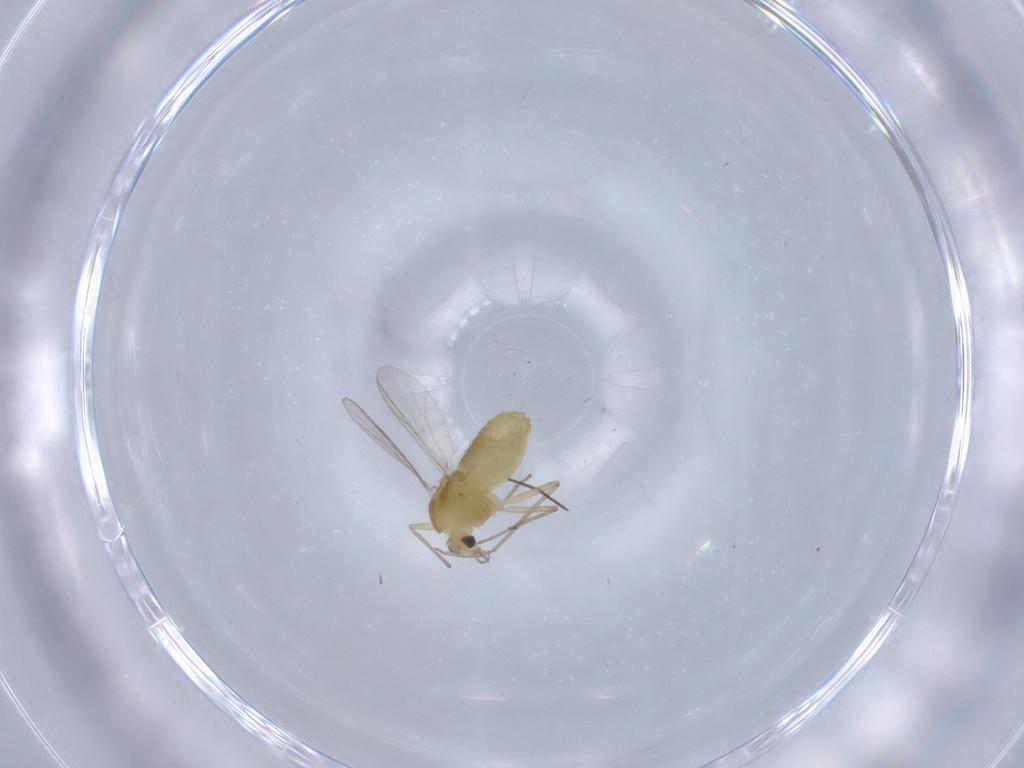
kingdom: Animalia
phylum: Arthropoda
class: Insecta
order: Diptera
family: Chironomidae
